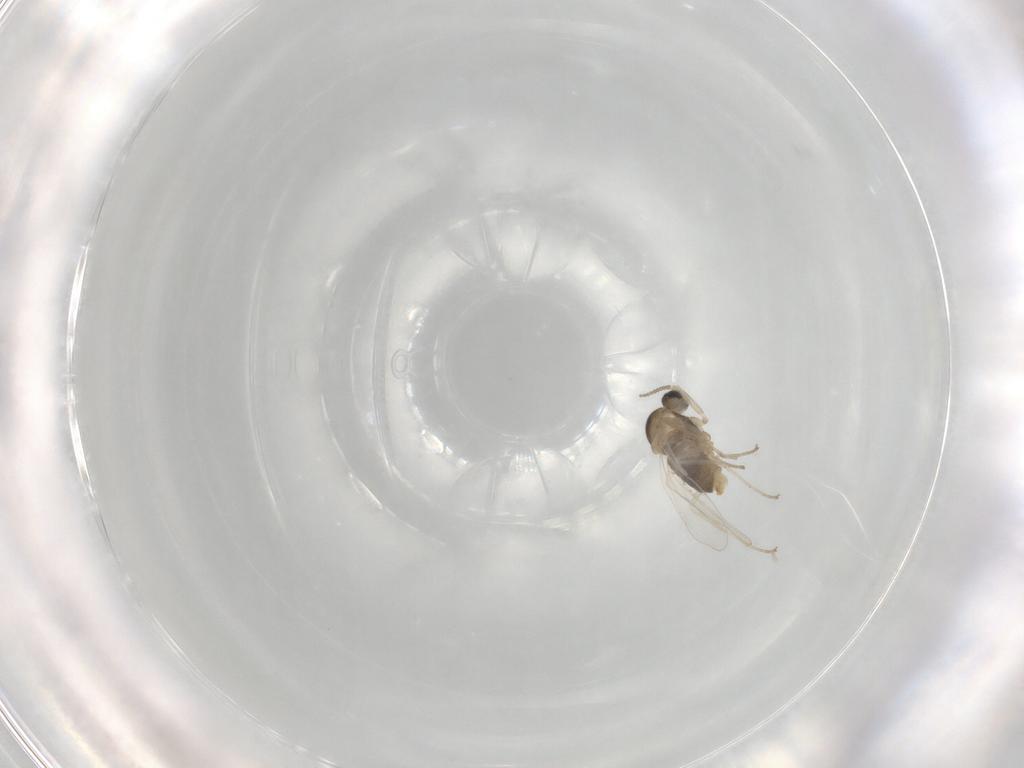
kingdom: Animalia
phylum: Arthropoda
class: Insecta
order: Diptera
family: Cecidomyiidae
